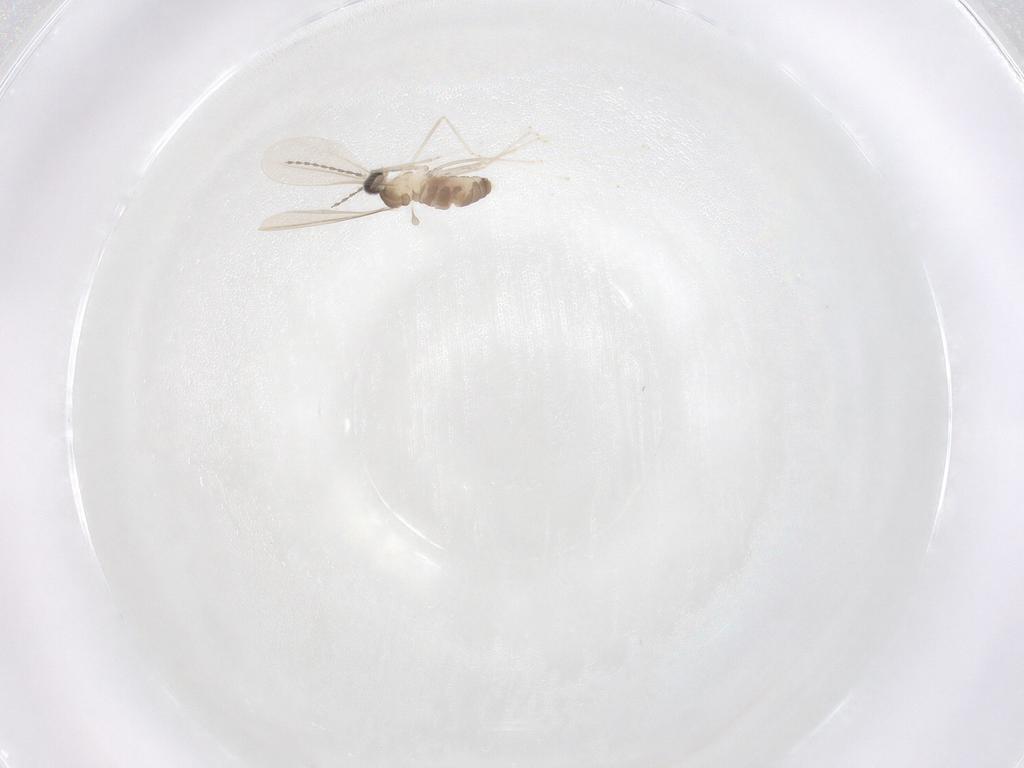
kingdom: Animalia
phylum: Arthropoda
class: Insecta
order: Diptera
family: Cecidomyiidae
